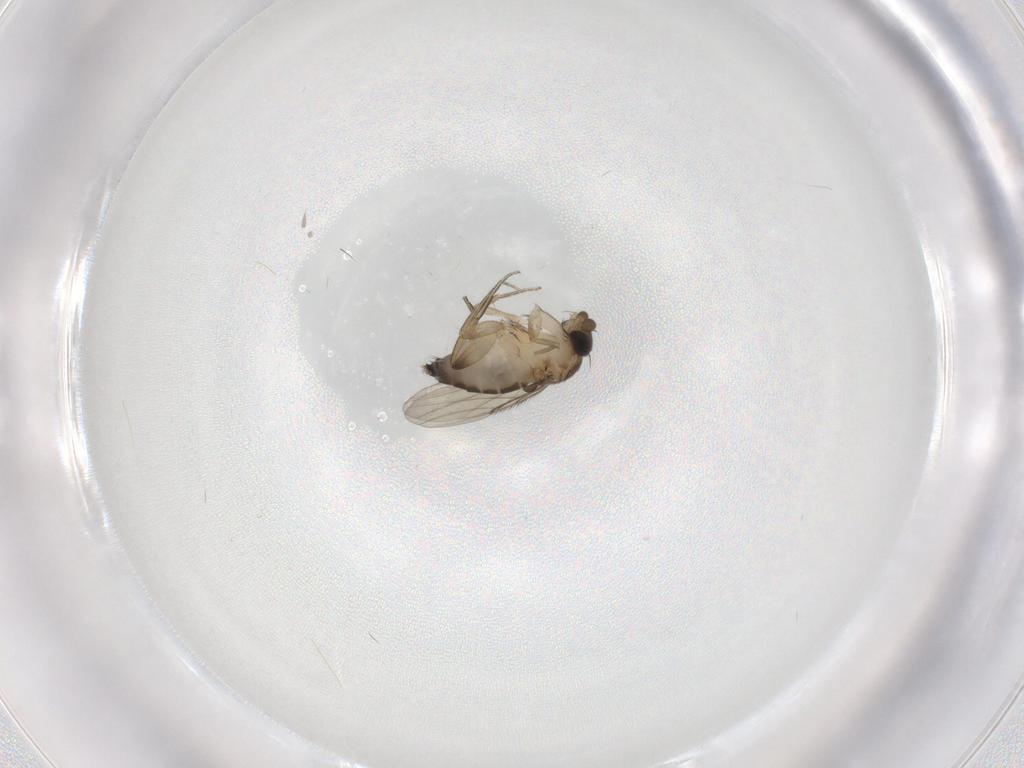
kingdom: Animalia
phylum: Arthropoda
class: Insecta
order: Diptera
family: Phoridae
